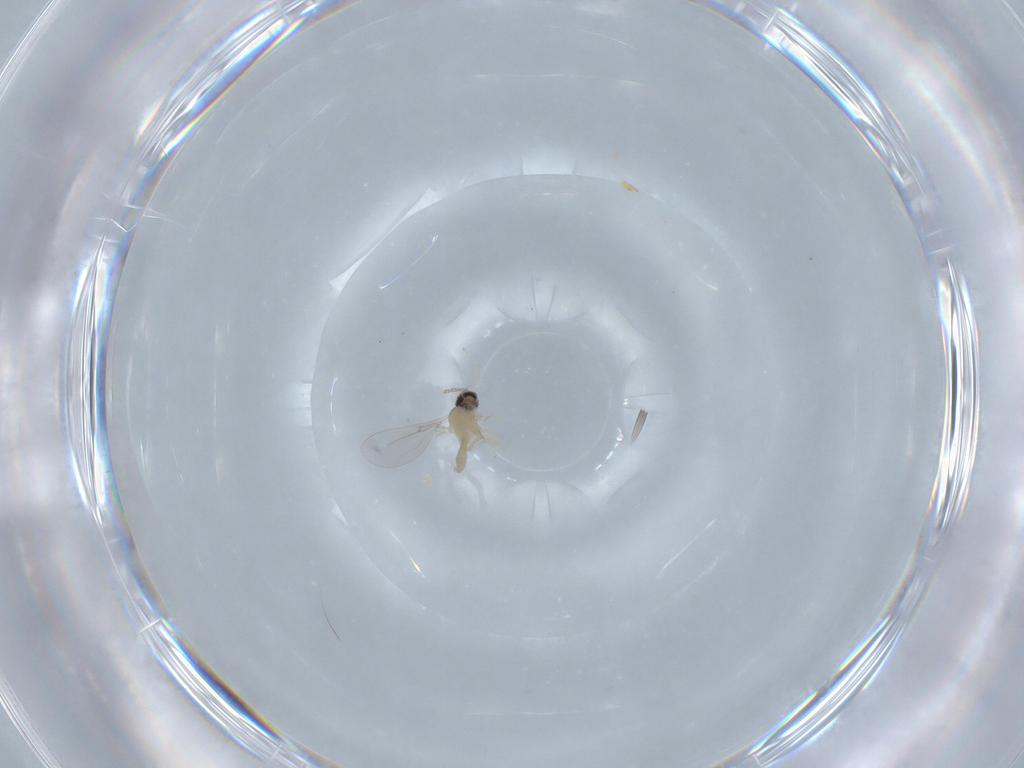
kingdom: Animalia
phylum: Arthropoda
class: Insecta
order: Diptera
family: Cecidomyiidae
